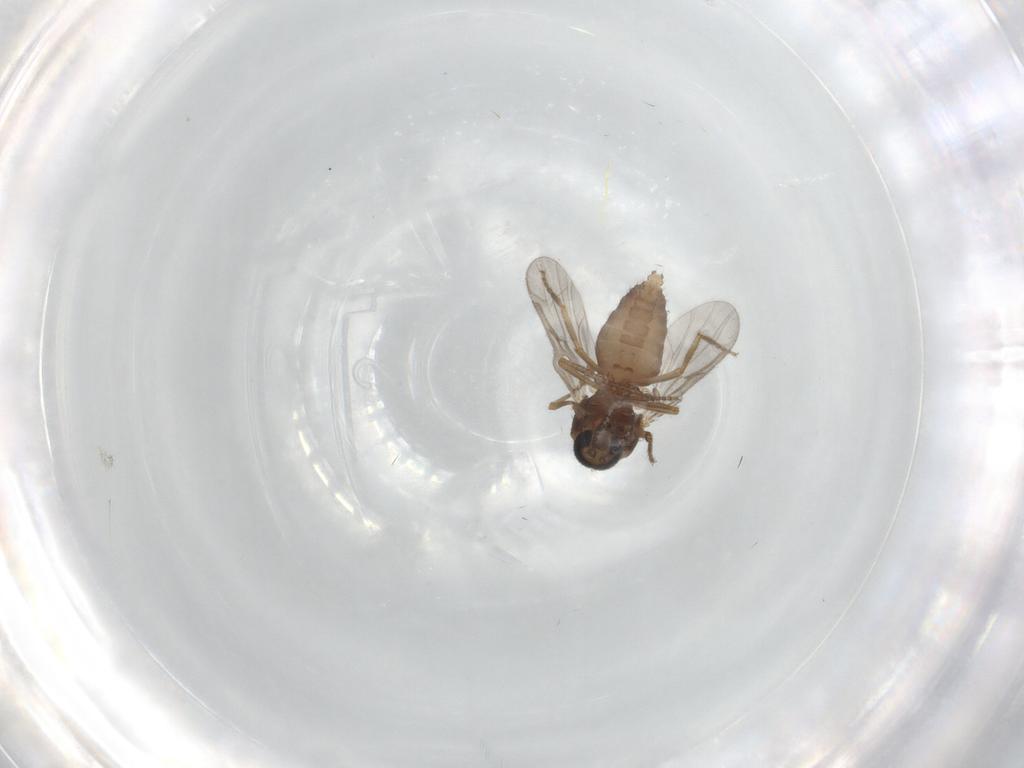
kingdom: Animalia
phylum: Arthropoda
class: Insecta
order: Diptera
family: Ceratopogonidae
